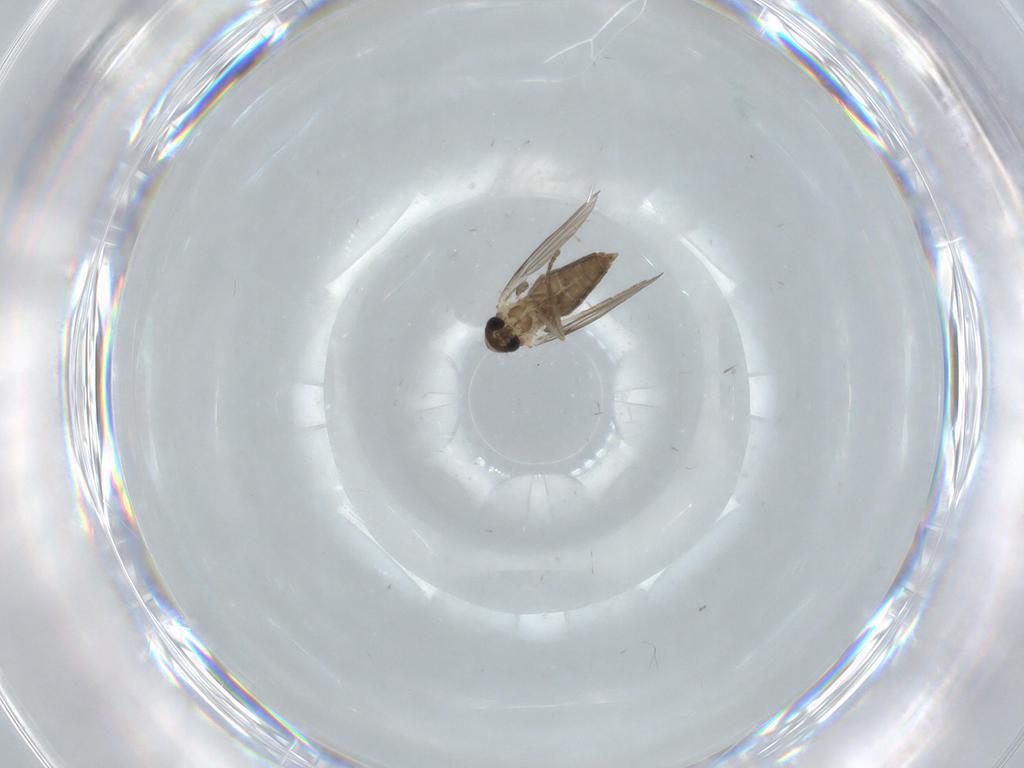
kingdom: Animalia
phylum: Arthropoda
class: Insecta
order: Diptera
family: Psychodidae
